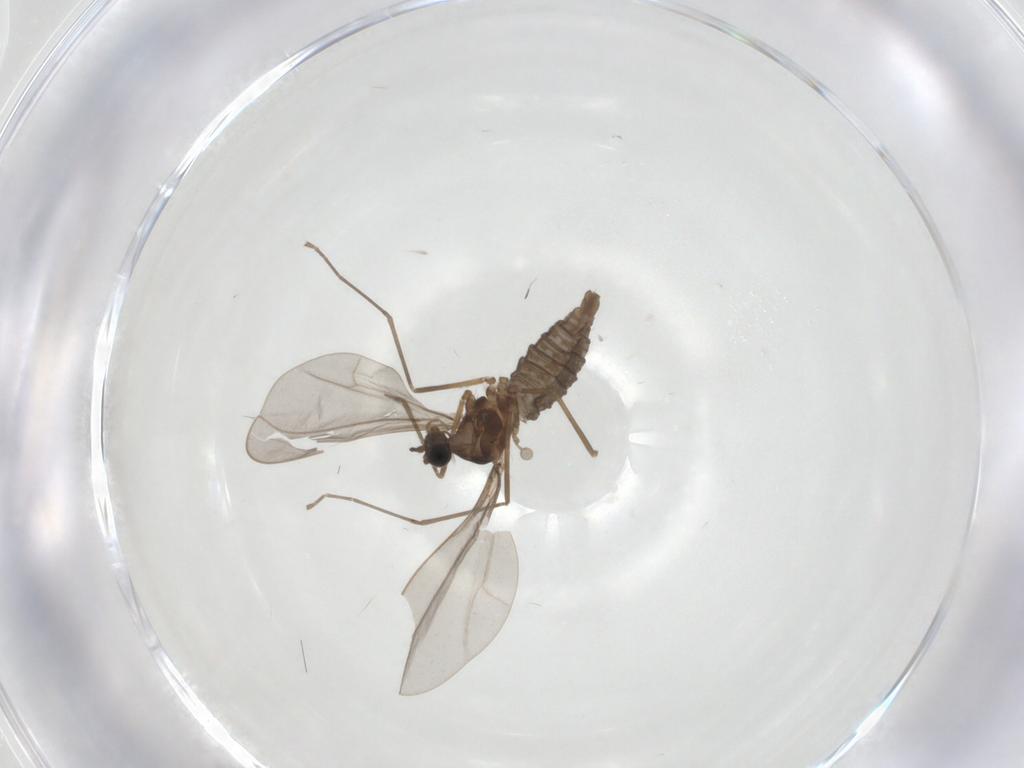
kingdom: Animalia
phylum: Arthropoda
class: Insecta
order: Diptera
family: Cecidomyiidae
